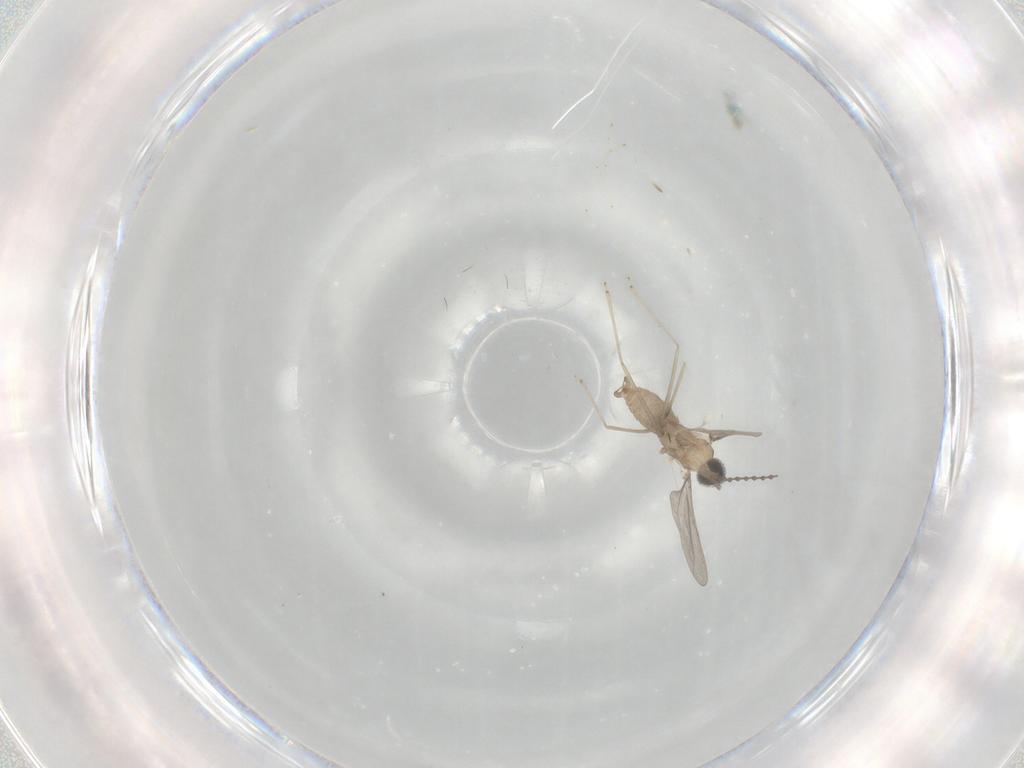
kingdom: Animalia
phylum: Arthropoda
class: Insecta
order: Diptera
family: Cecidomyiidae
